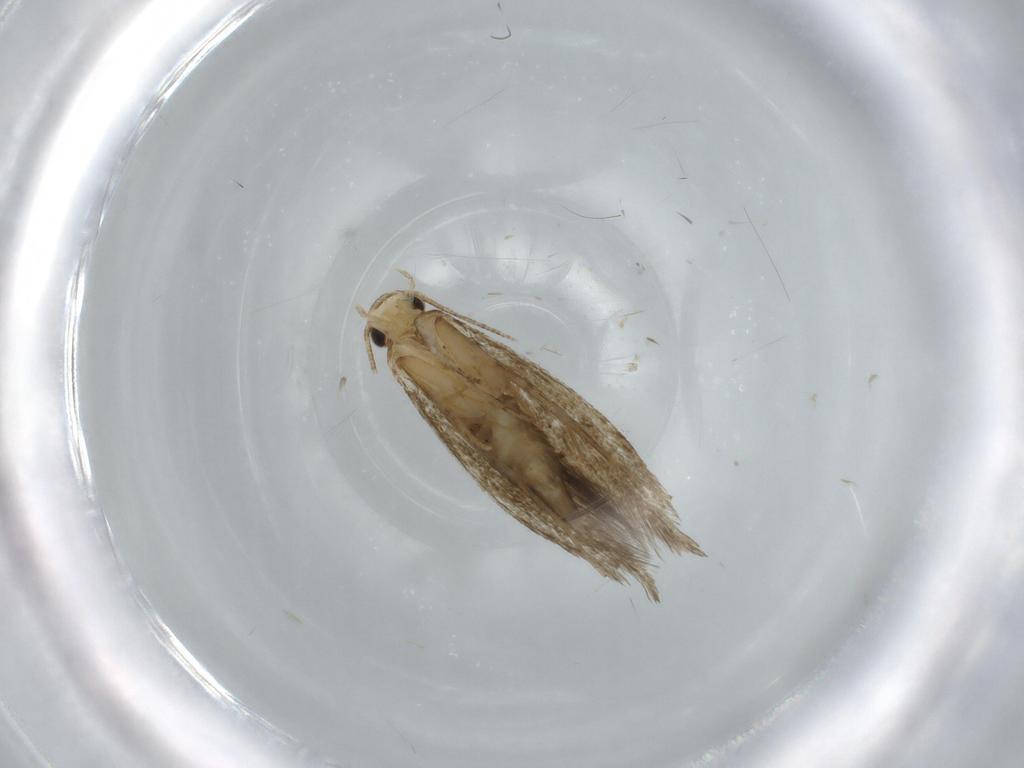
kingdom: Animalia
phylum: Arthropoda
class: Insecta
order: Lepidoptera
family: Tineidae
